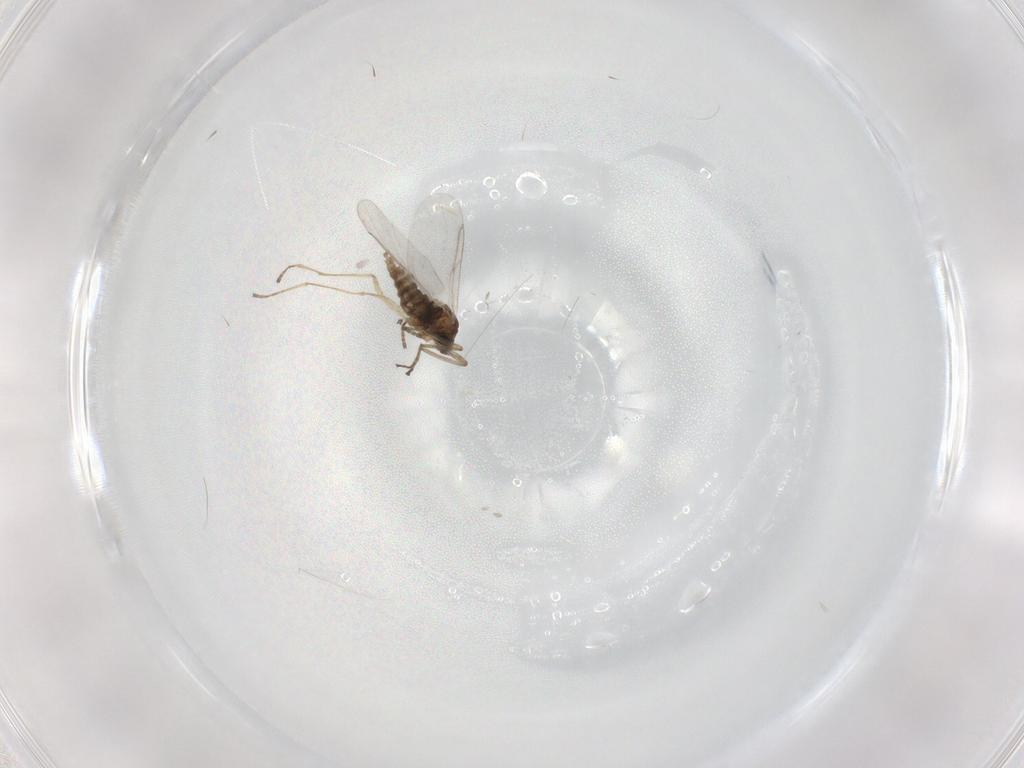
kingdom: Animalia
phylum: Arthropoda
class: Insecta
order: Diptera
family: Cecidomyiidae
